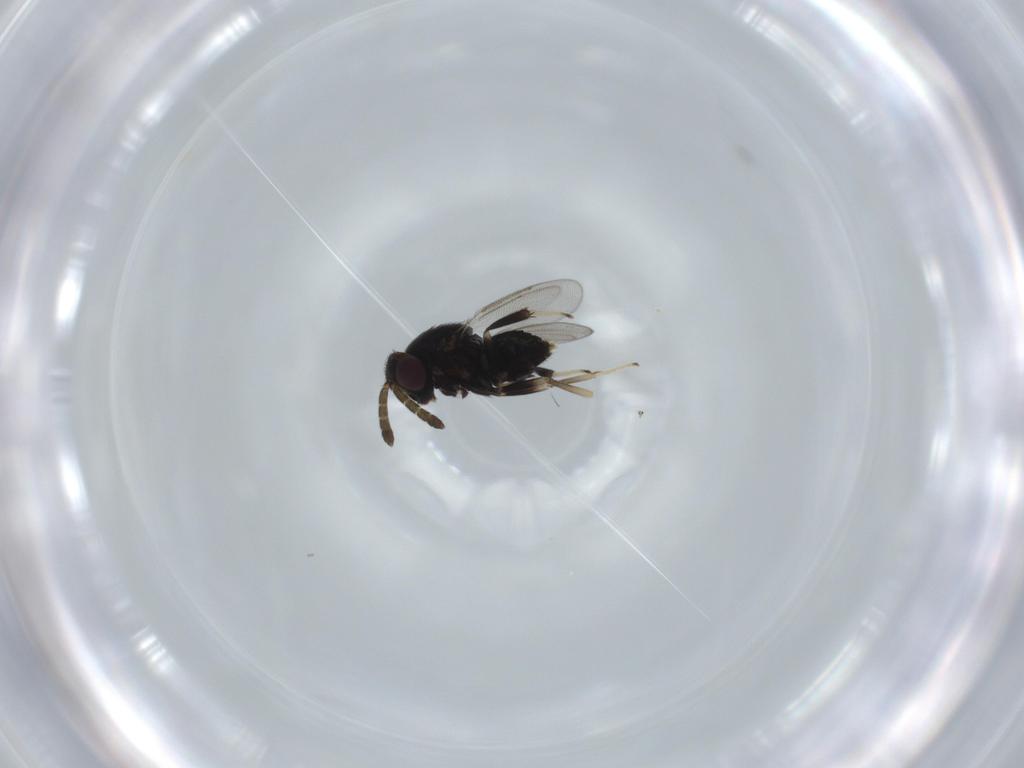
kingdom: Animalia
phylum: Arthropoda
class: Insecta
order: Hymenoptera
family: Aphelinidae
